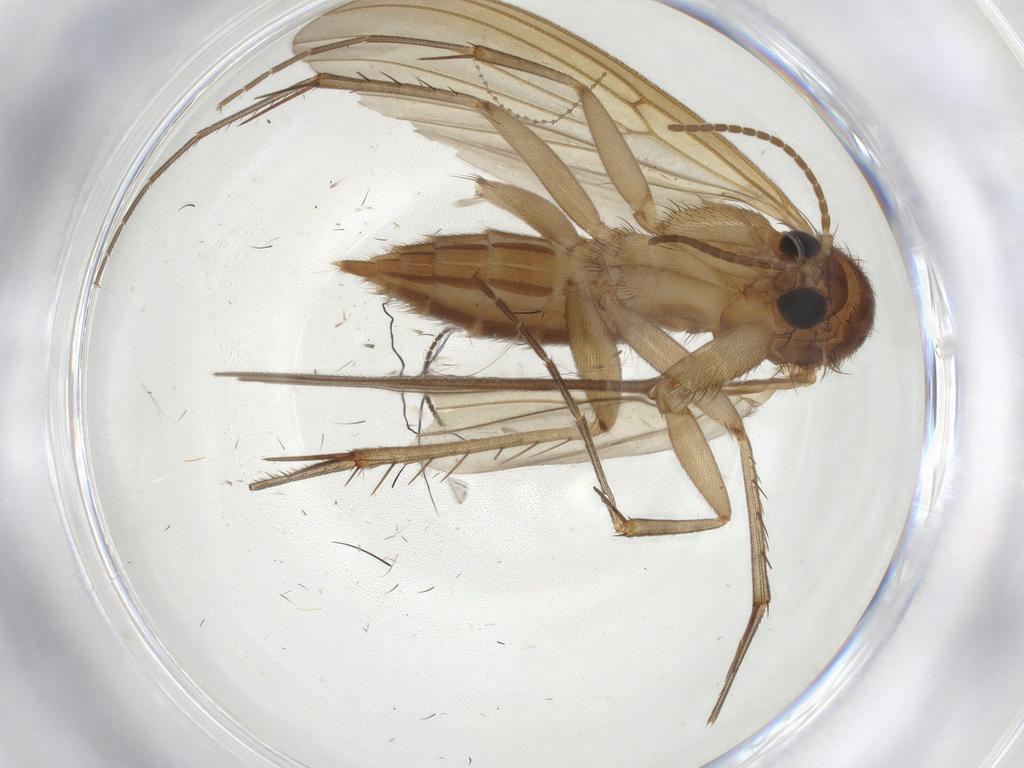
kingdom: Animalia
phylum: Arthropoda
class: Insecta
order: Diptera
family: Mycetophilidae
